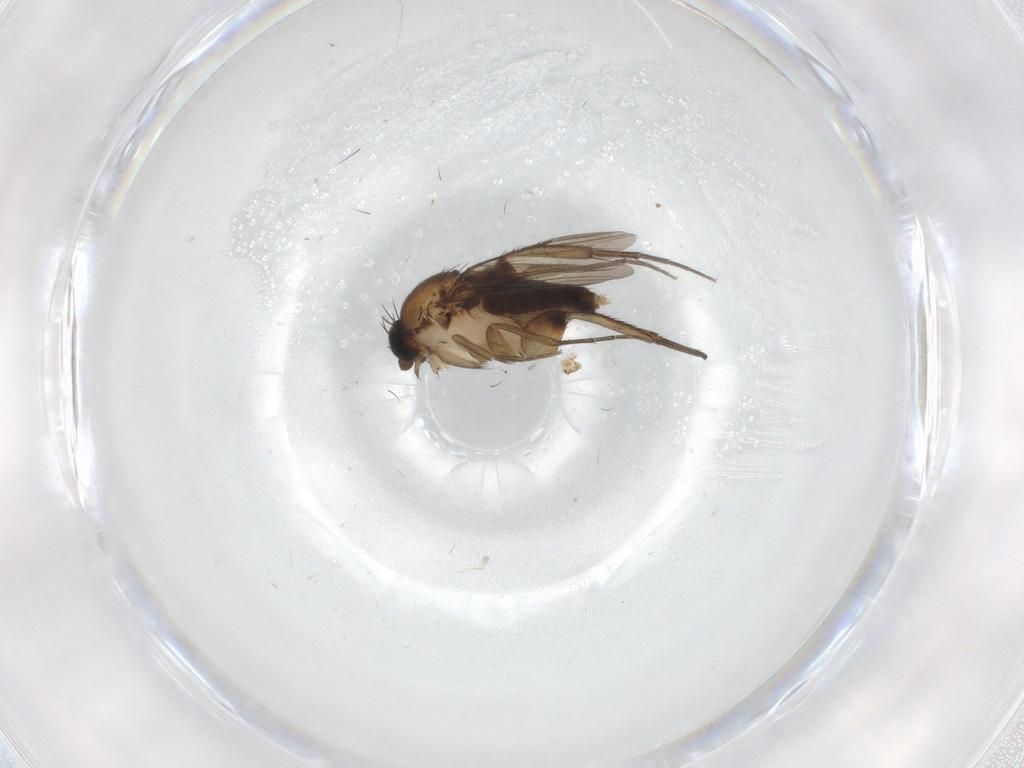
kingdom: Animalia
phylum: Arthropoda
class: Insecta
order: Diptera
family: Phoridae
